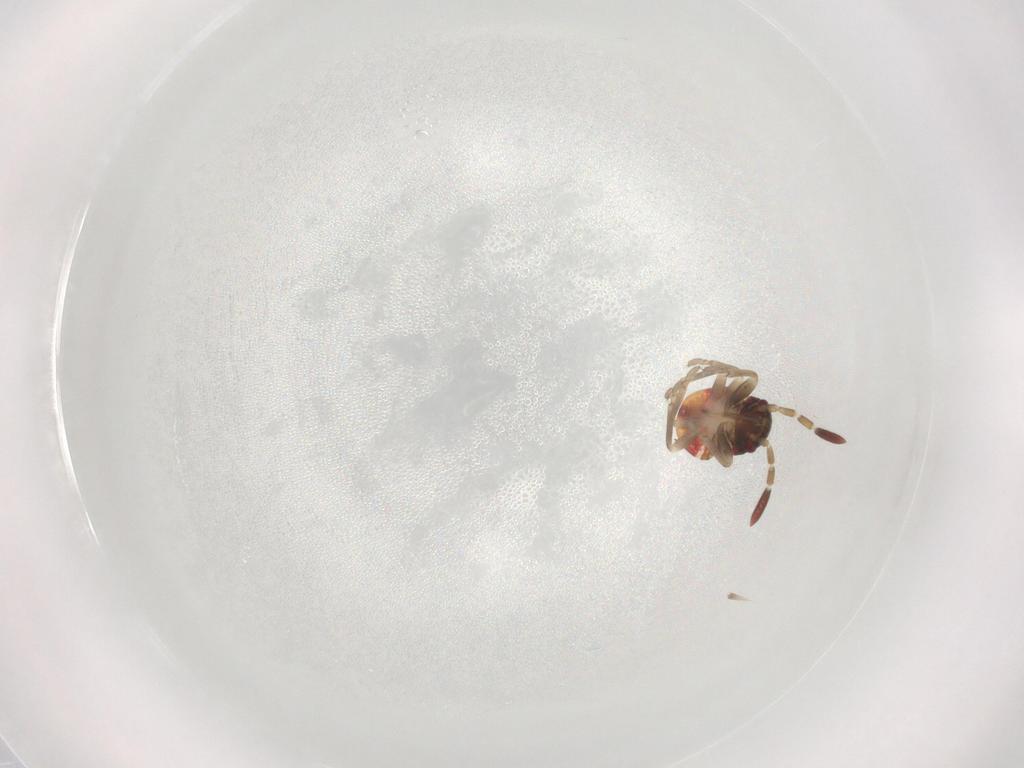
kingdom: Animalia
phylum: Arthropoda
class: Insecta
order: Hemiptera
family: Rhyparochromidae
